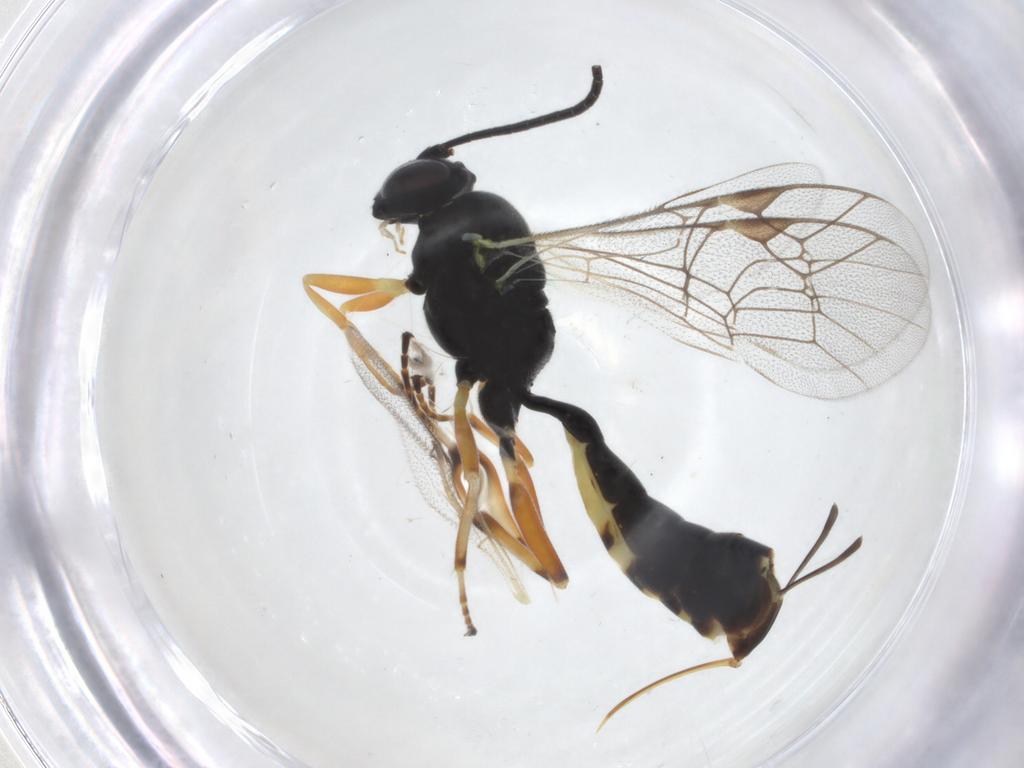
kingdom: Animalia
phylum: Arthropoda
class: Insecta
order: Hymenoptera
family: Ichneumonidae
